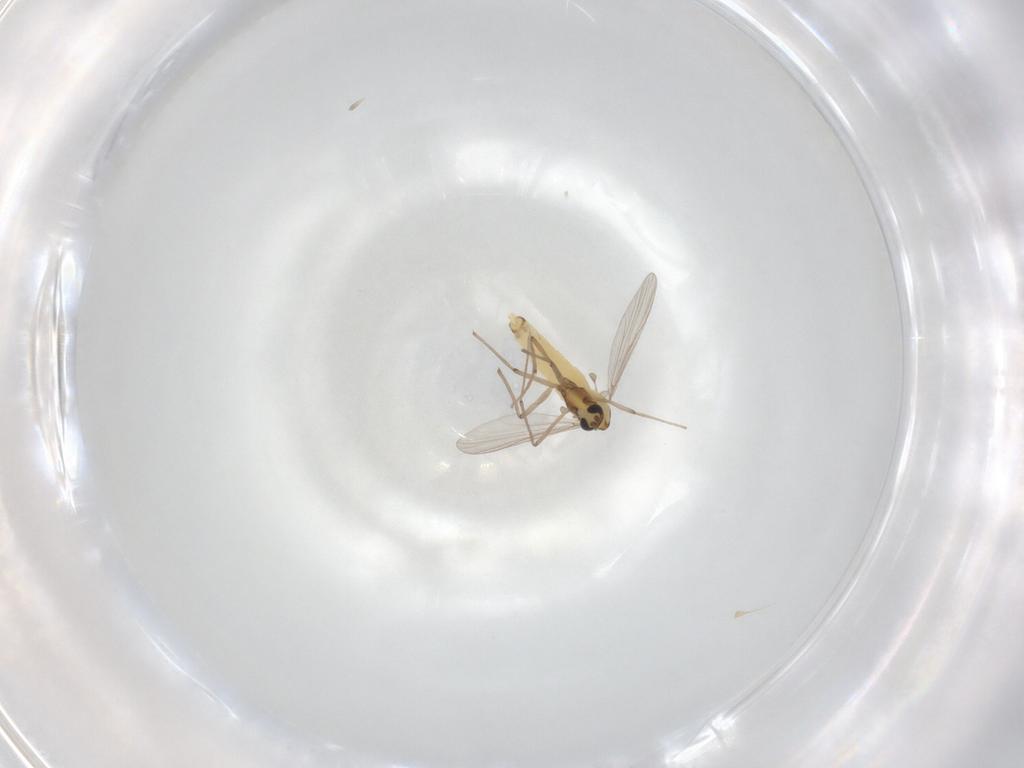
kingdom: Animalia
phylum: Arthropoda
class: Insecta
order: Diptera
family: Chironomidae
